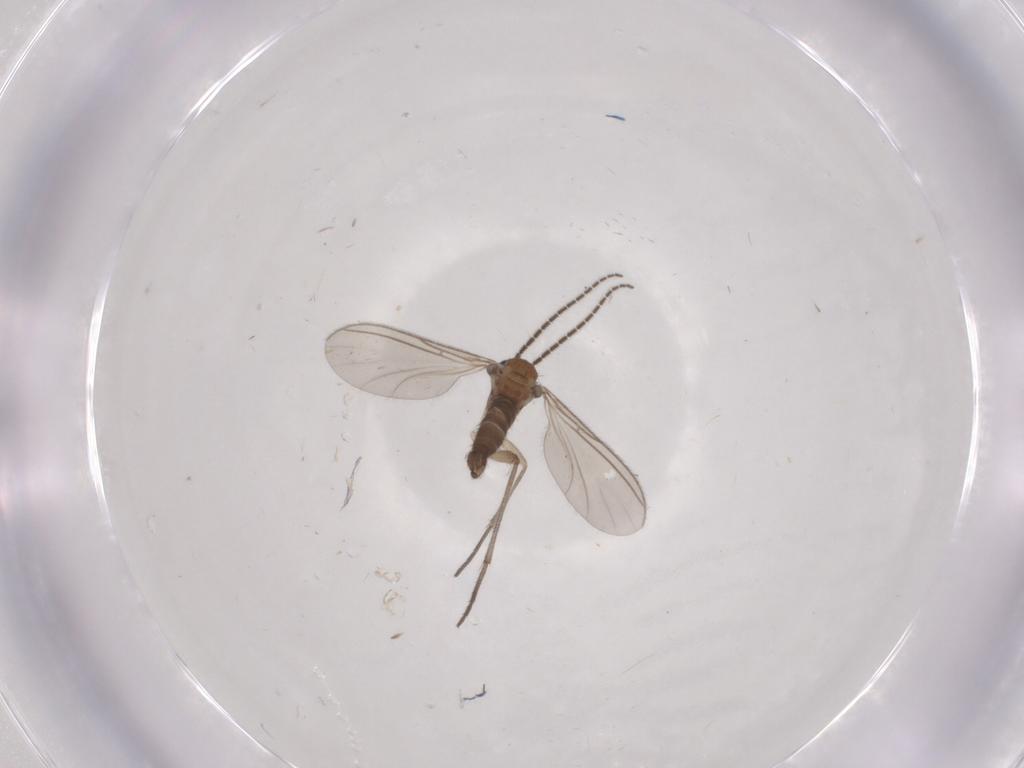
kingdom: Animalia
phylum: Arthropoda
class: Insecta
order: Diptera
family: Sciaridae
